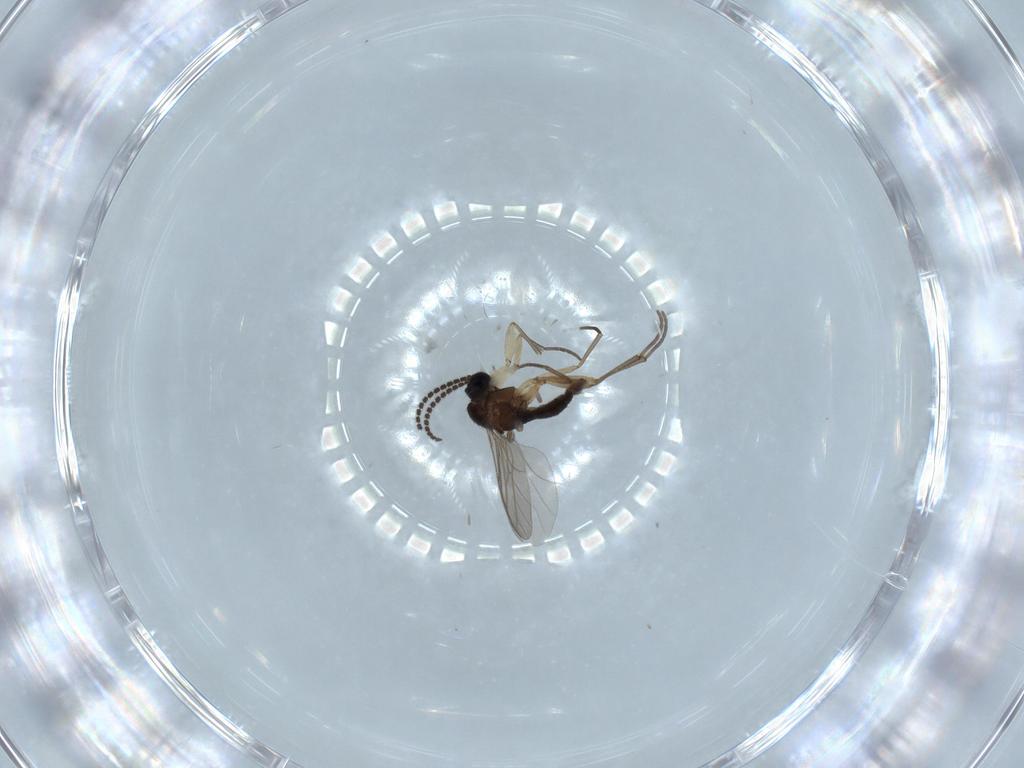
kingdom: Animalia
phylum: Arthropoda
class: Insecta
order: Diptera
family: Sciaridae
